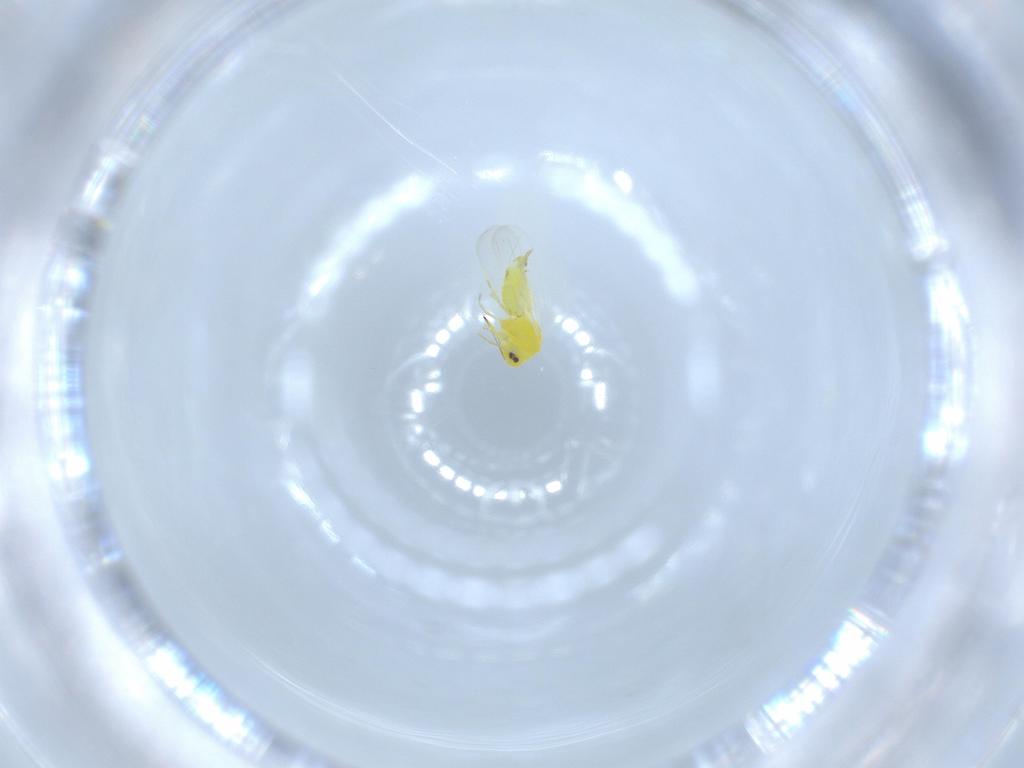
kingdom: Animalia
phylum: Arthropoda
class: Insecta
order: Hemiptera
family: Aleyrodidae
